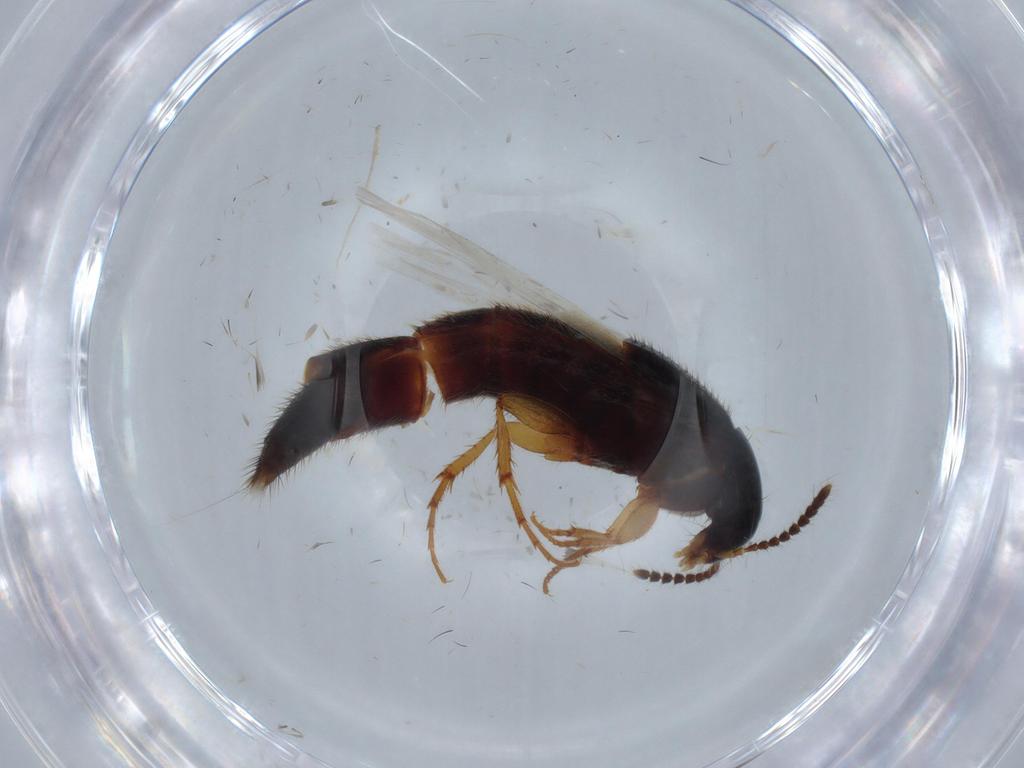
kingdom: Animalia
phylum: Arthropoda
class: Insecta
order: Coleoptera
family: Staphylinidae
